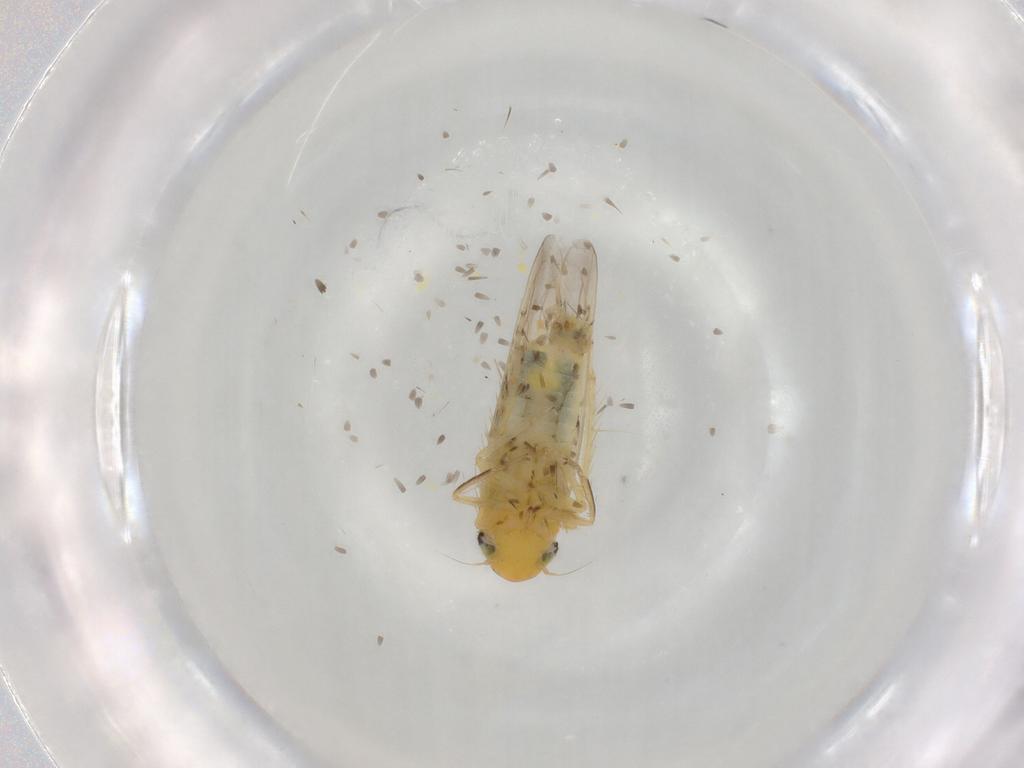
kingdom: Animalia
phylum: Arthropoda
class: Insecta
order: Hemiptera
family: Cicadellidae
